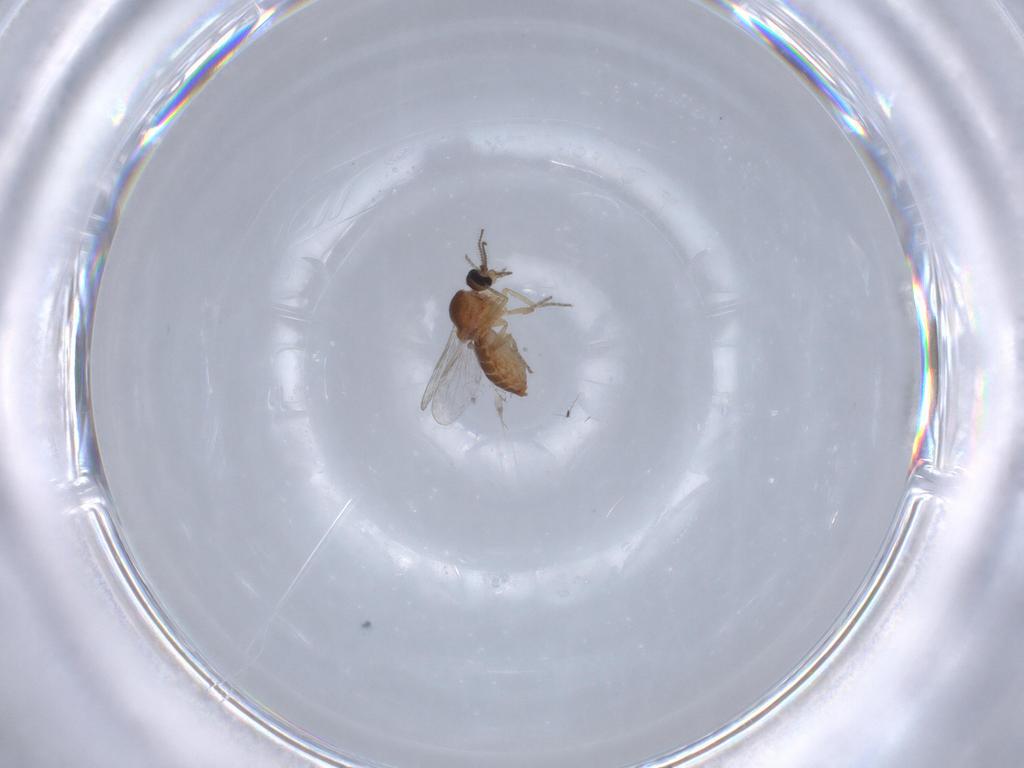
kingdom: Animalia
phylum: Arthropoda
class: Insecta
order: Diptera
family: Ceratopogonidae
